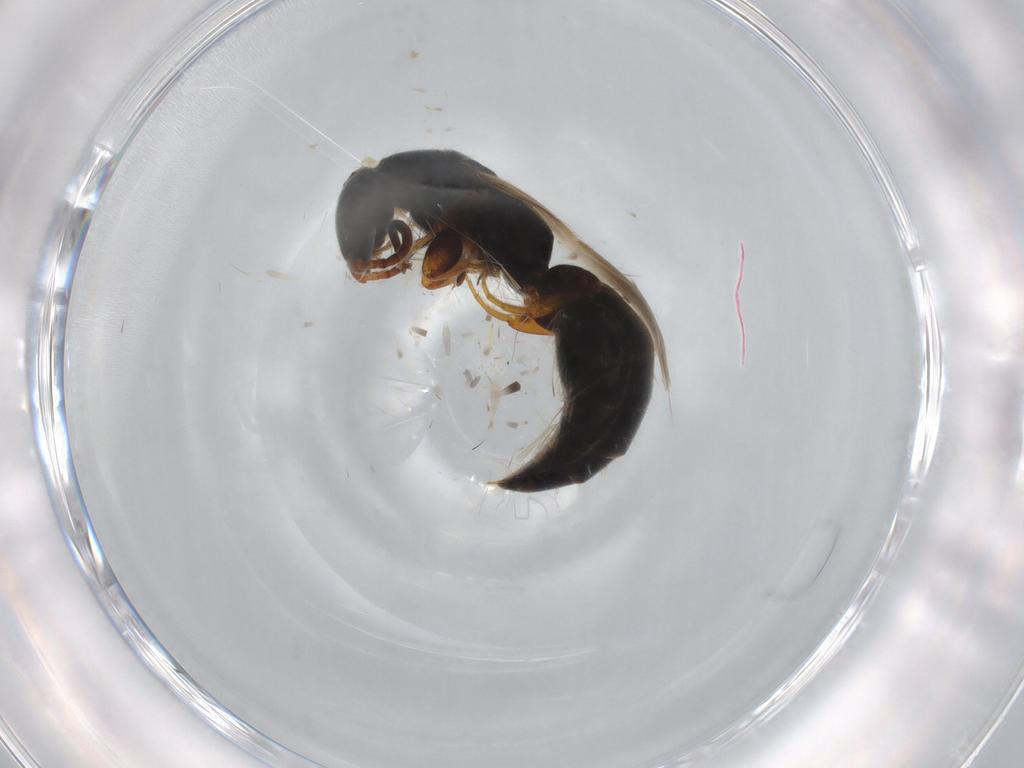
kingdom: Animalia
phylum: Arthropoda
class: Insecta
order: Hymenoptera
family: Bethylidae
